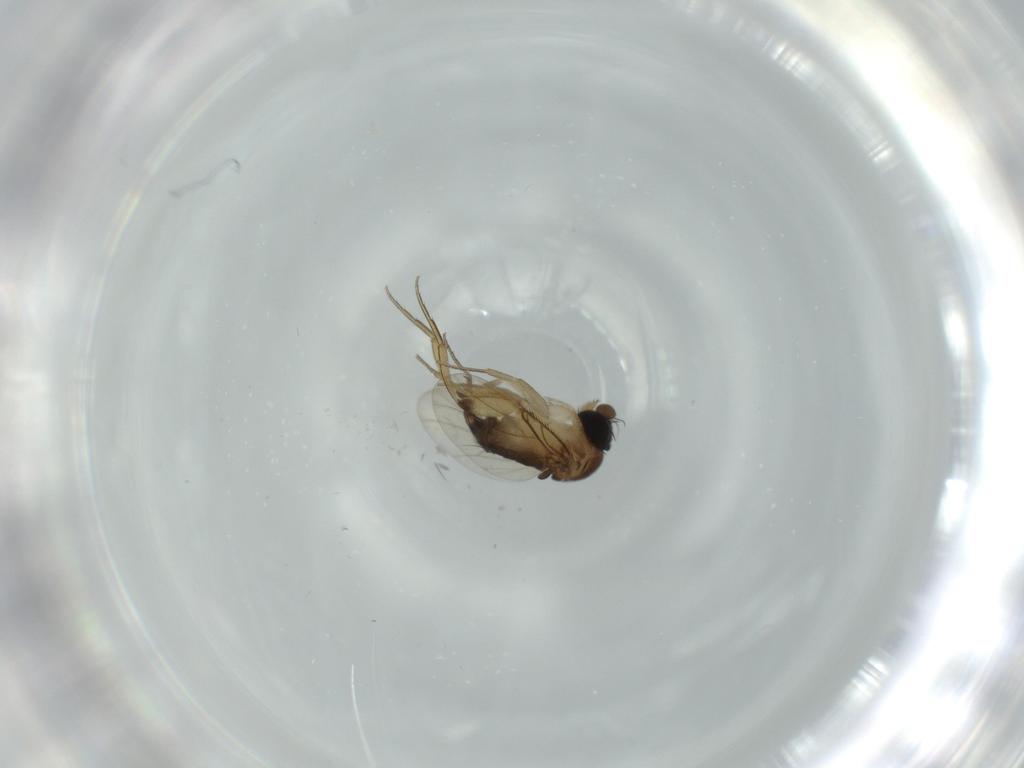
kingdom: Animalia
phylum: Arthropoda
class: Insecta
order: Diptera
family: Phoridae
